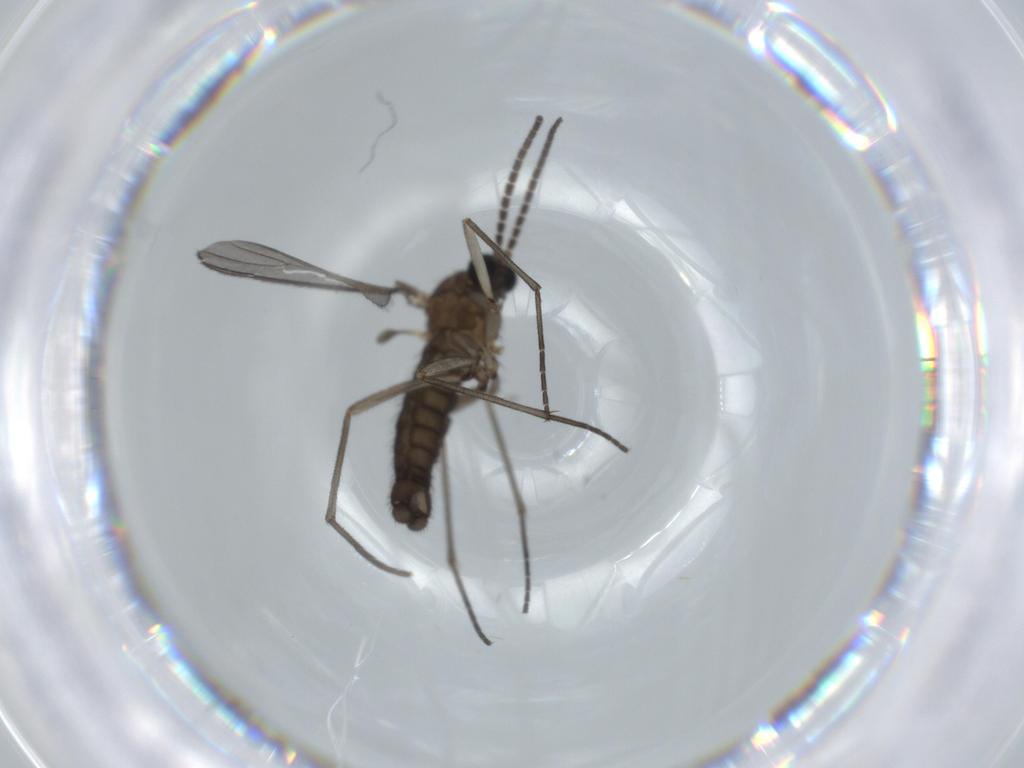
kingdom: Animalia
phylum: Arthropoda
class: Insecta
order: Diptera
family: Sciaridae
